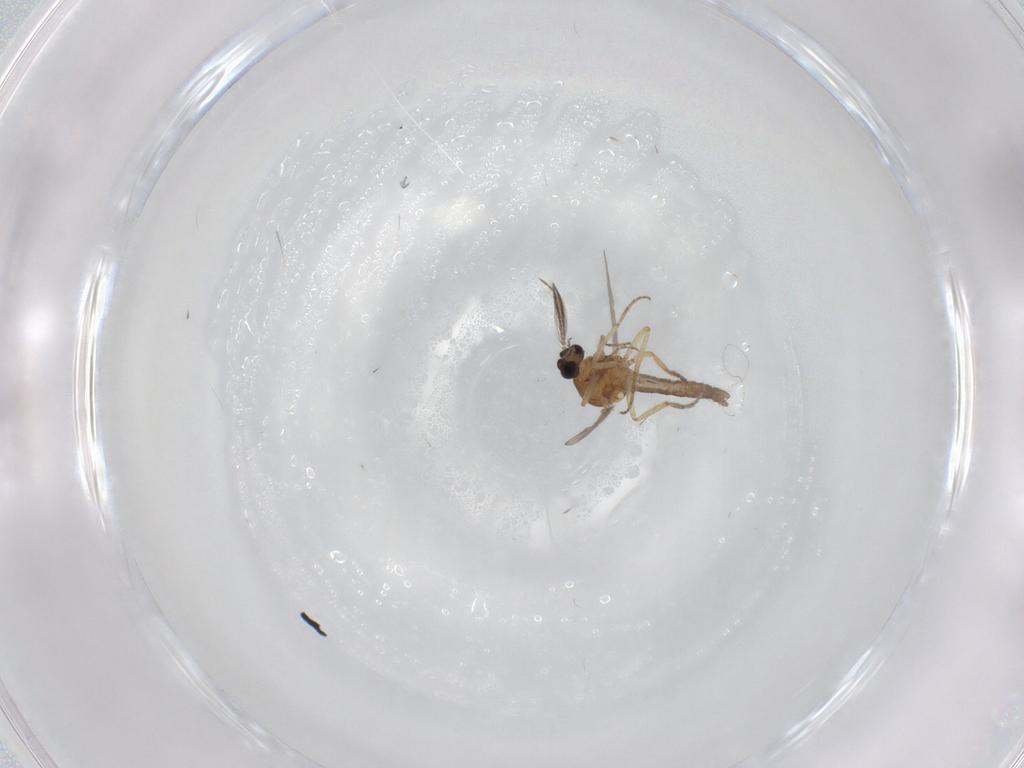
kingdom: Animalia
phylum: Arthropoda
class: Insecta
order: Diptera
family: Ceratopogonidae
